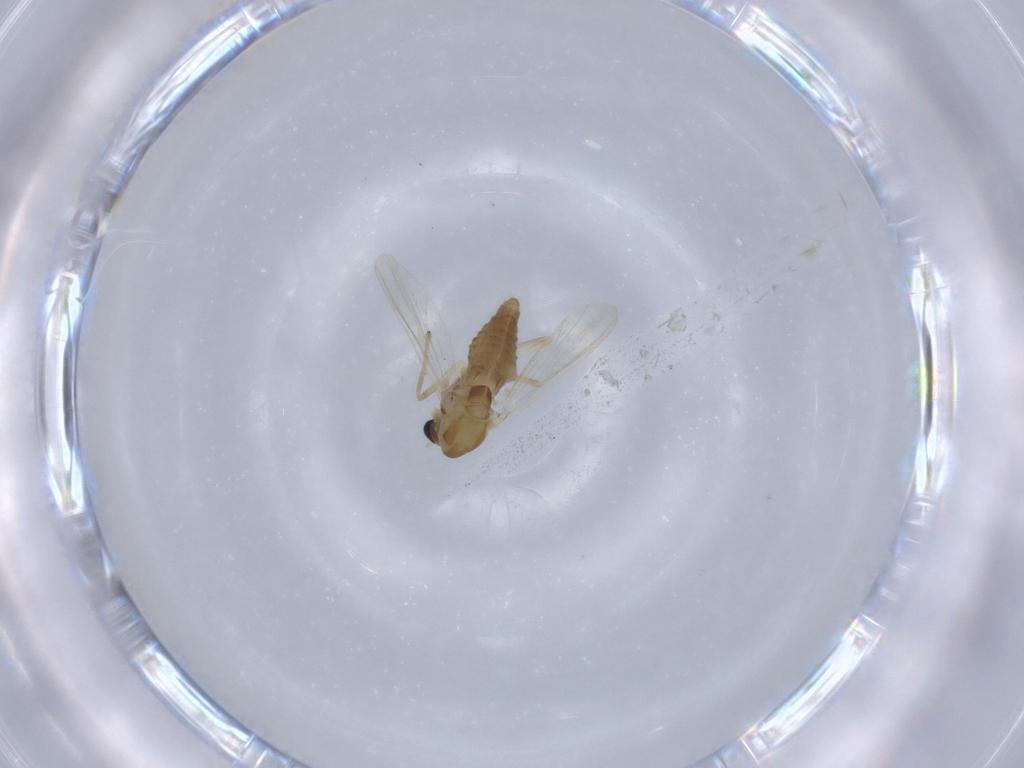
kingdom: Animalia
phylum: Arthropoda
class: Insecta
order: Diptera
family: Chironomidae
